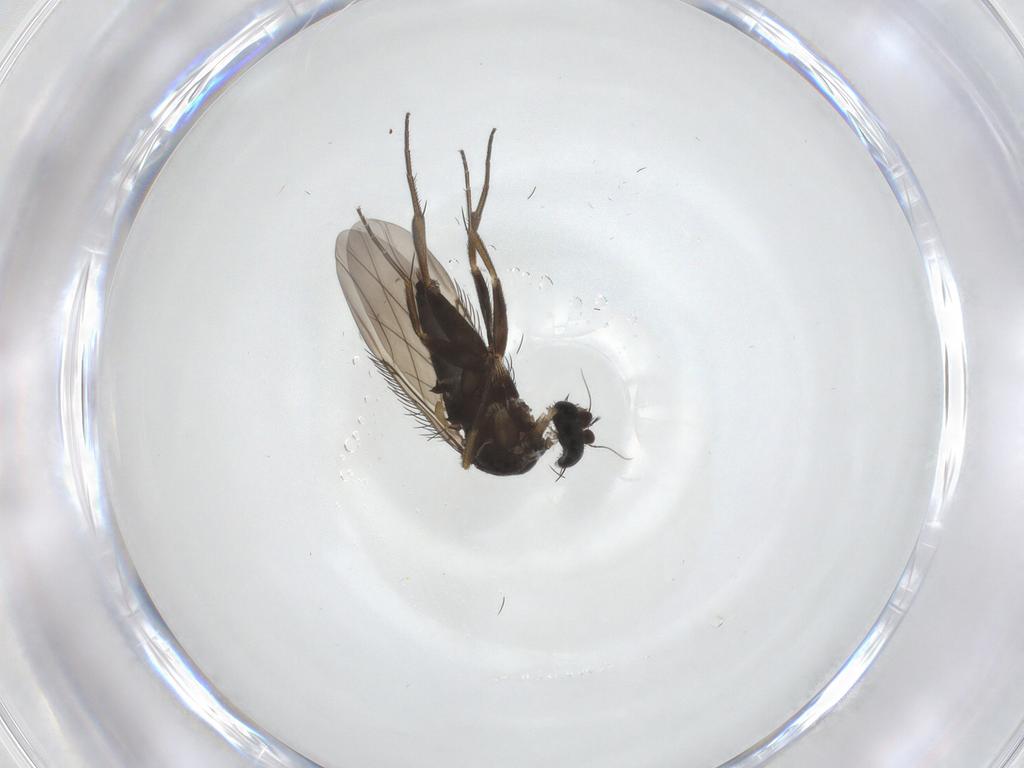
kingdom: Animalia
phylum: Arthropoda
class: Insecta
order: Diptera
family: Phoridae
